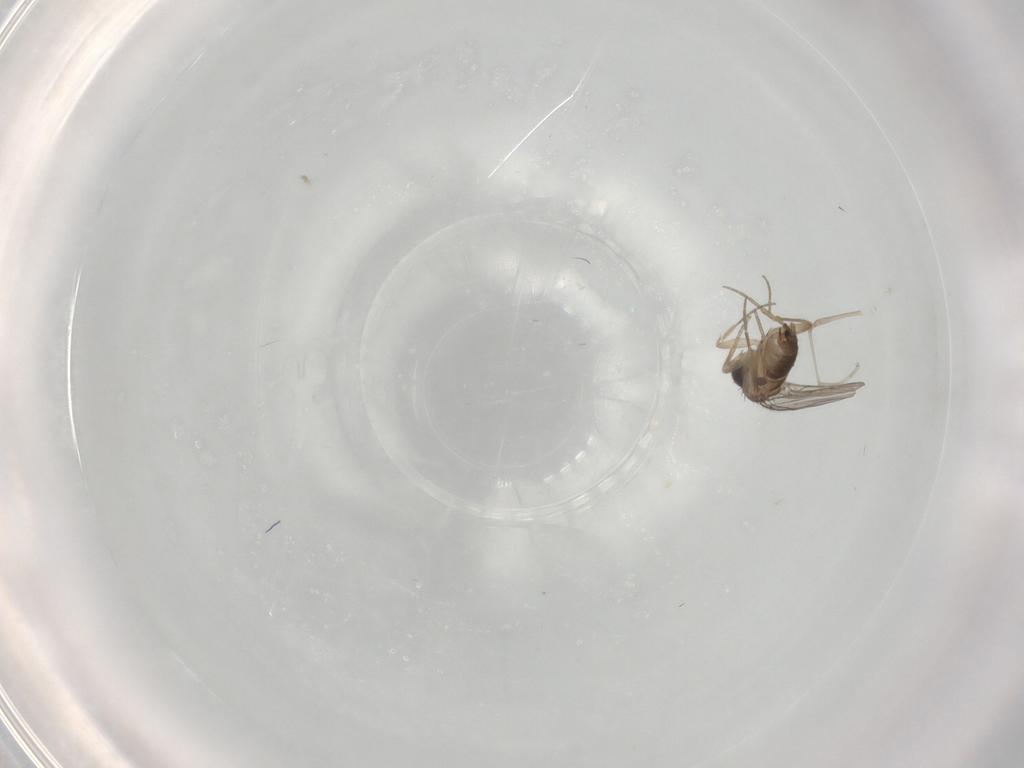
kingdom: Animalia
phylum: Arthropoda
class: Insecta
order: Diptera
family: Phoridae
